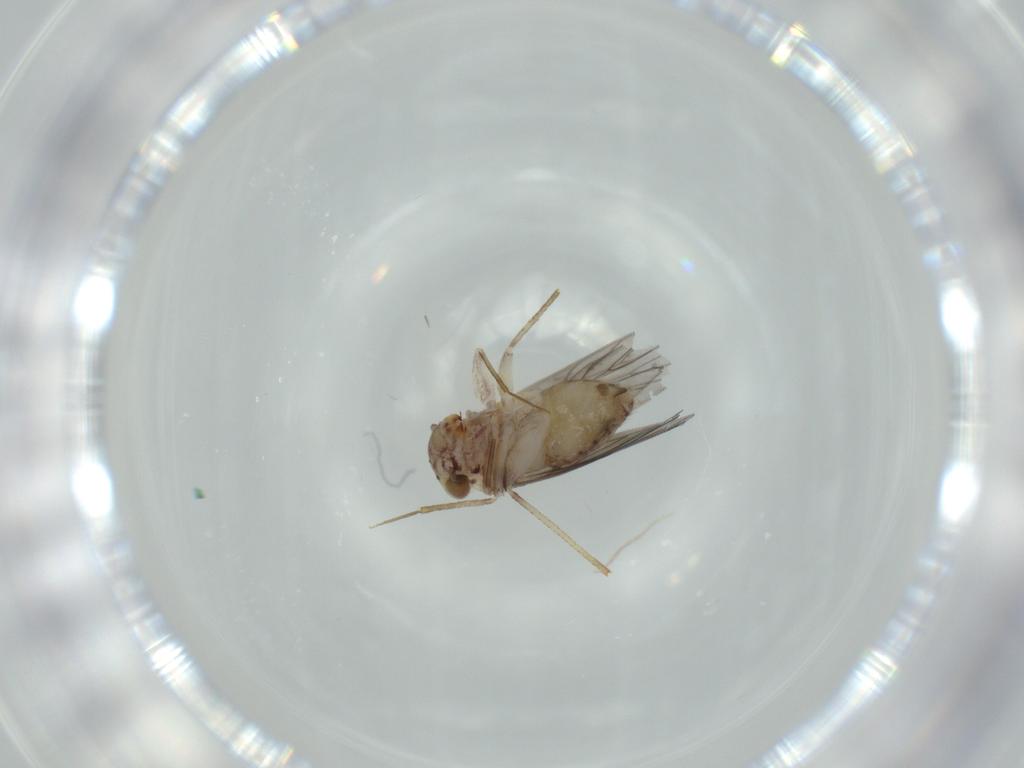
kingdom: Animalia
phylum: Arthropoda
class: Insecta
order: Psocodea
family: Lepidopsocidae
